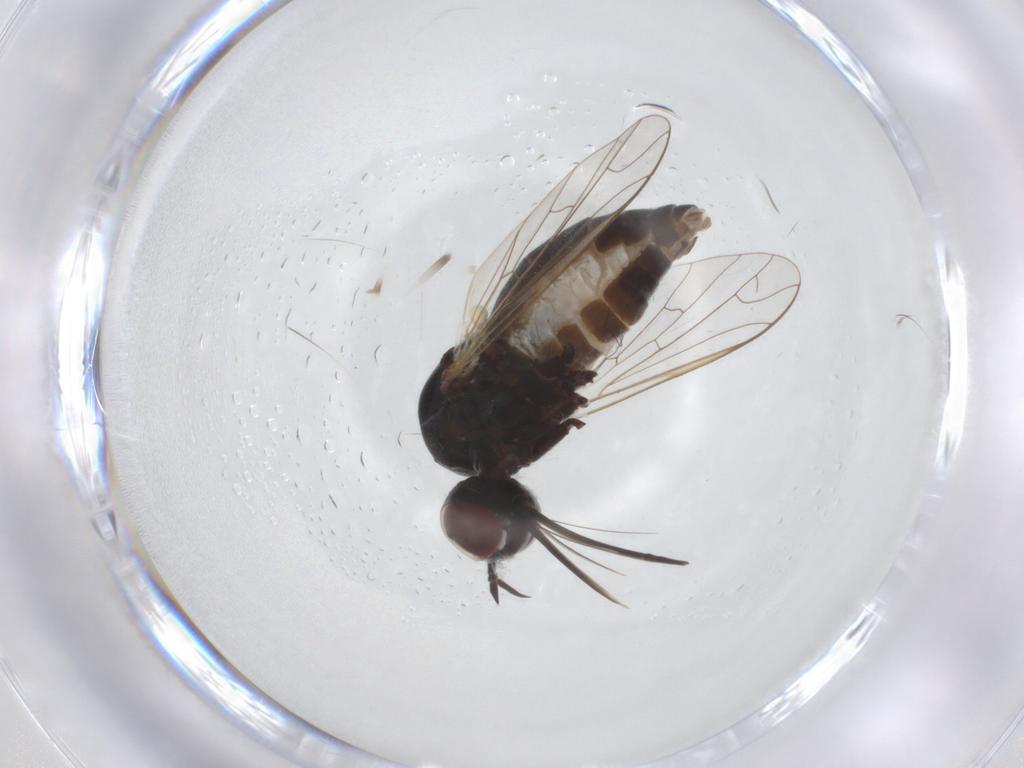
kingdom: Animalia
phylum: Arthropoda
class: Insecta
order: Diptera
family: Bombyliidae
